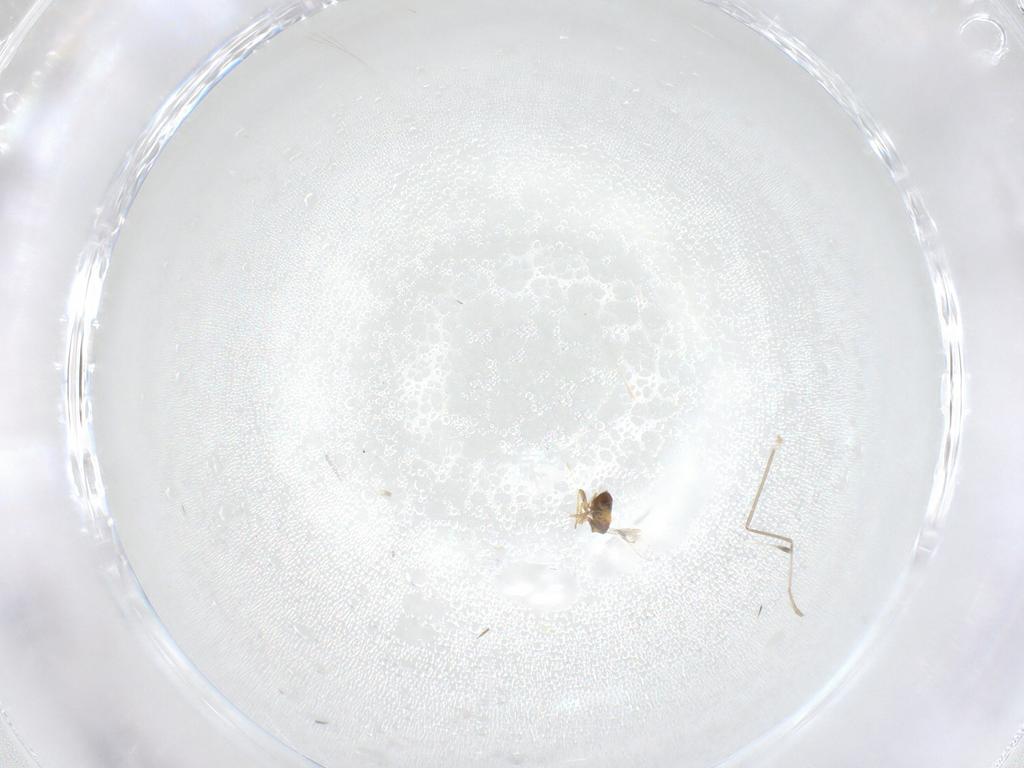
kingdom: Animalia
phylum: Arthropoda
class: Insecta
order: Diptera
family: Cecidomyiidae
